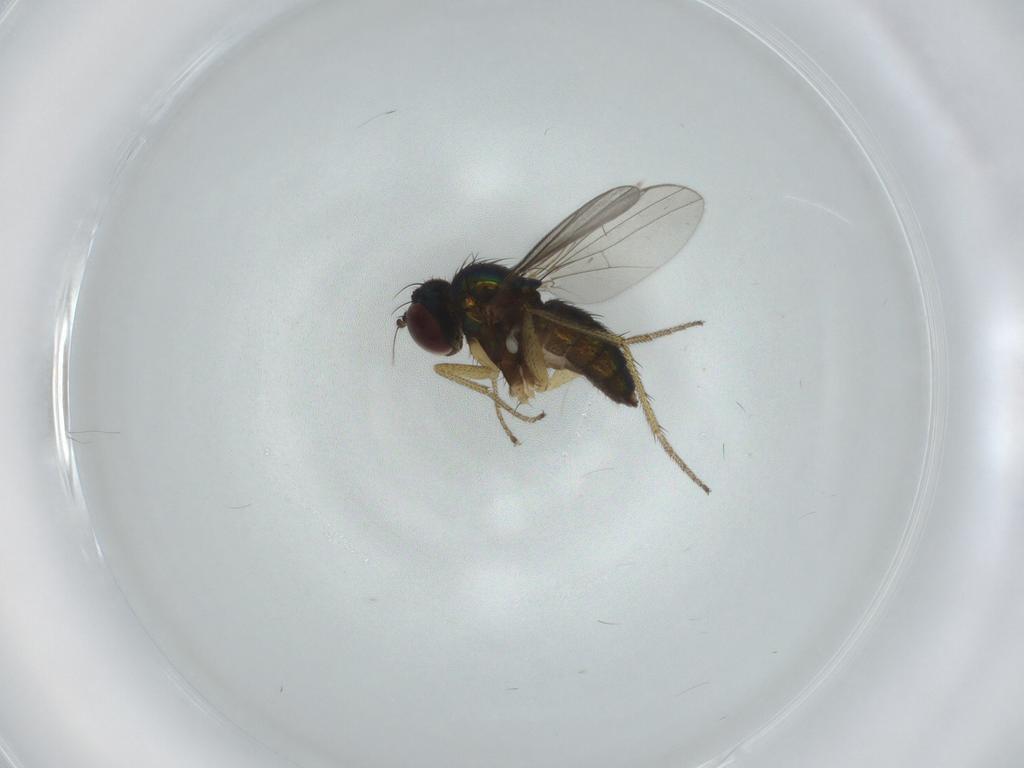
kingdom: Animalia
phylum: Arthropoda
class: Insecta
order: Diptera
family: Dolichopodidae
